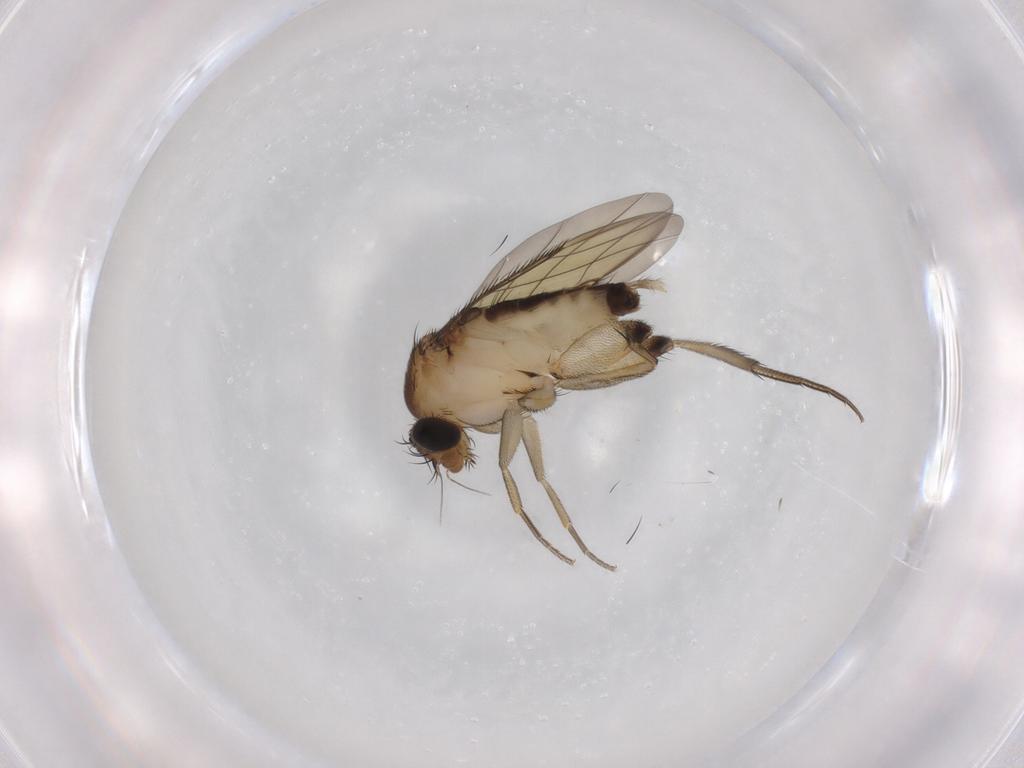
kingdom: Animalia
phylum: Arthropoda
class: Insecta
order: Diptera
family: Phoridae
